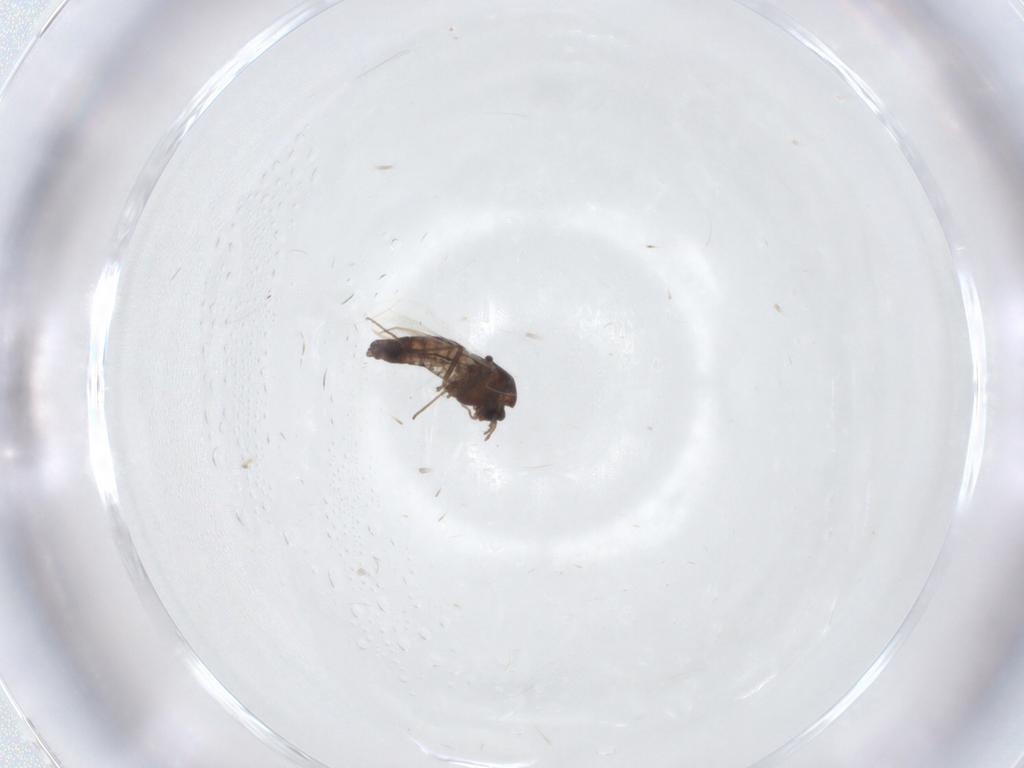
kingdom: Animalia
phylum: Arthropoda
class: Insecta
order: Diptera
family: Chironomidae
